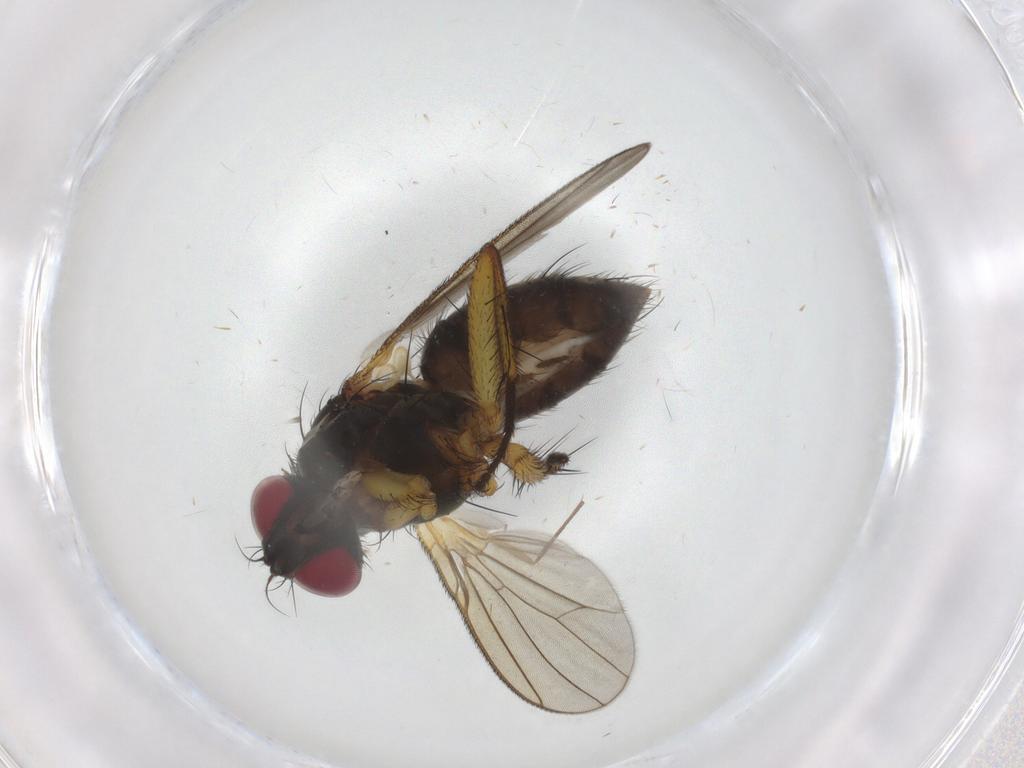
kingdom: Animalia
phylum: Arthropoda
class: Insecta
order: Diptera
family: Muscidae
